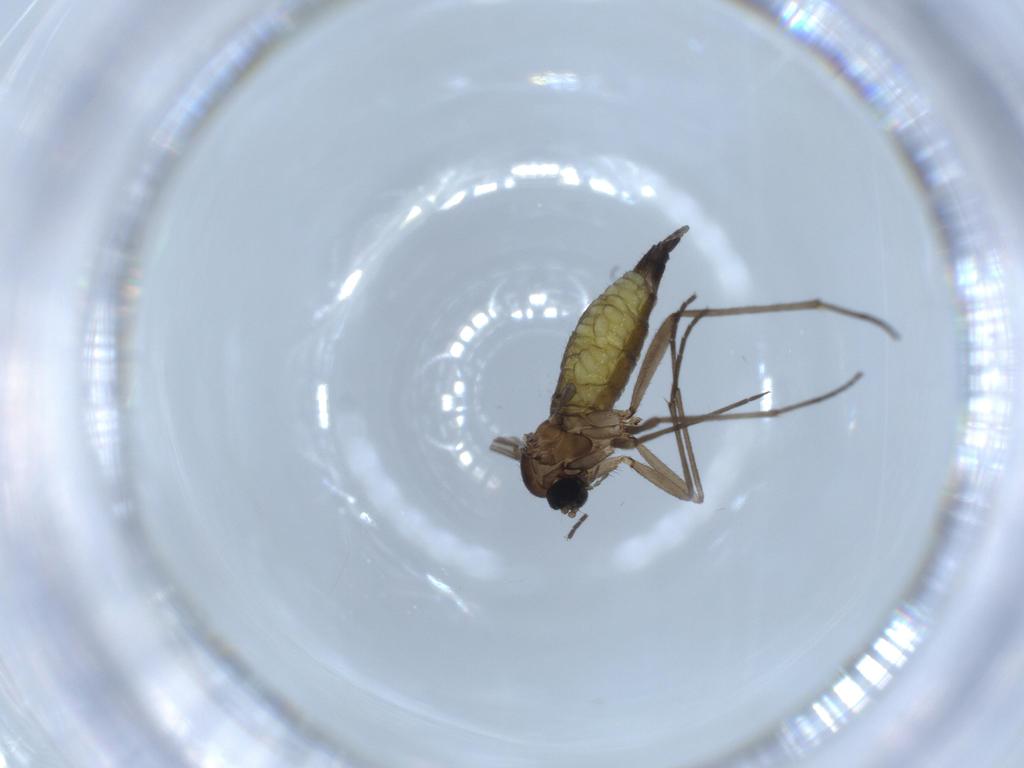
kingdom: Animalia
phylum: Arthropoda
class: Insecta
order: Diptera
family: Sciaridae
